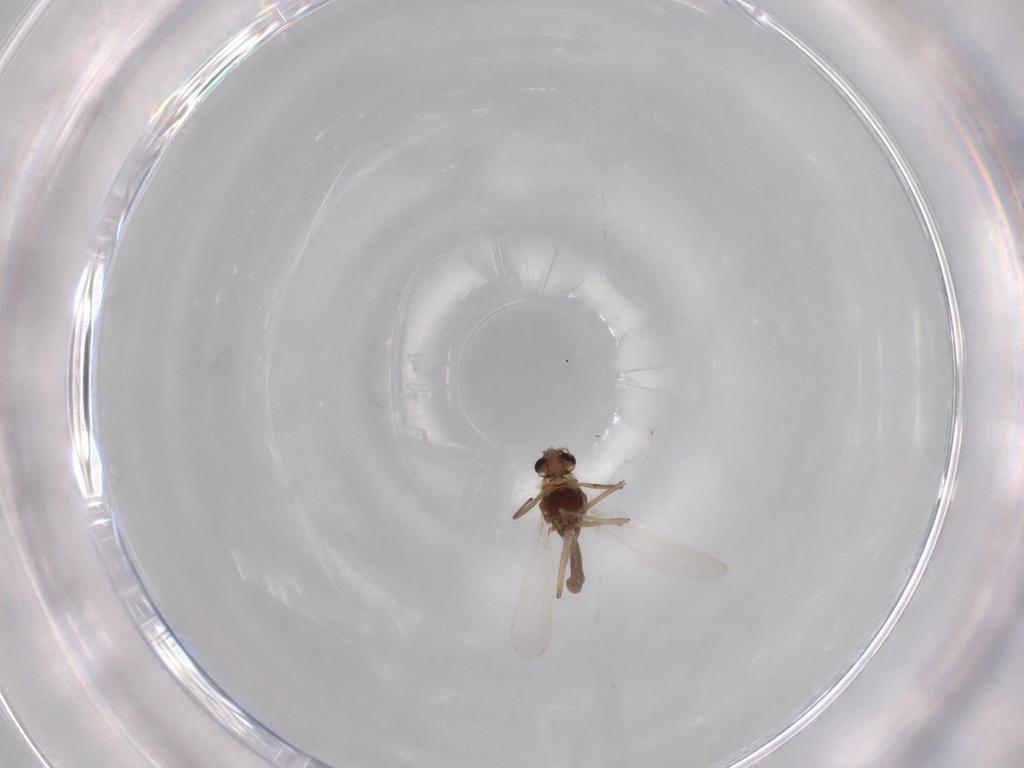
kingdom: Animalia
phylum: Arthropoda
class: Insecta
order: Diptera
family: Chironomidae
